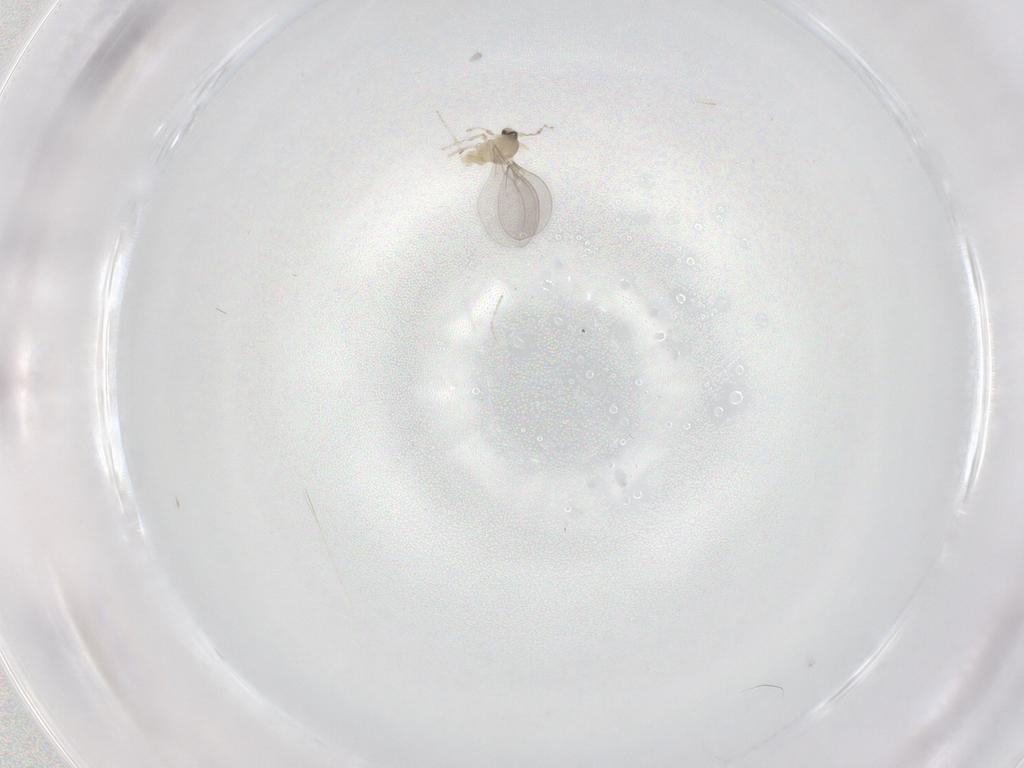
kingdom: Animalia
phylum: Arthropoda
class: Insecta
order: Diptera
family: Cecidomyiidae
